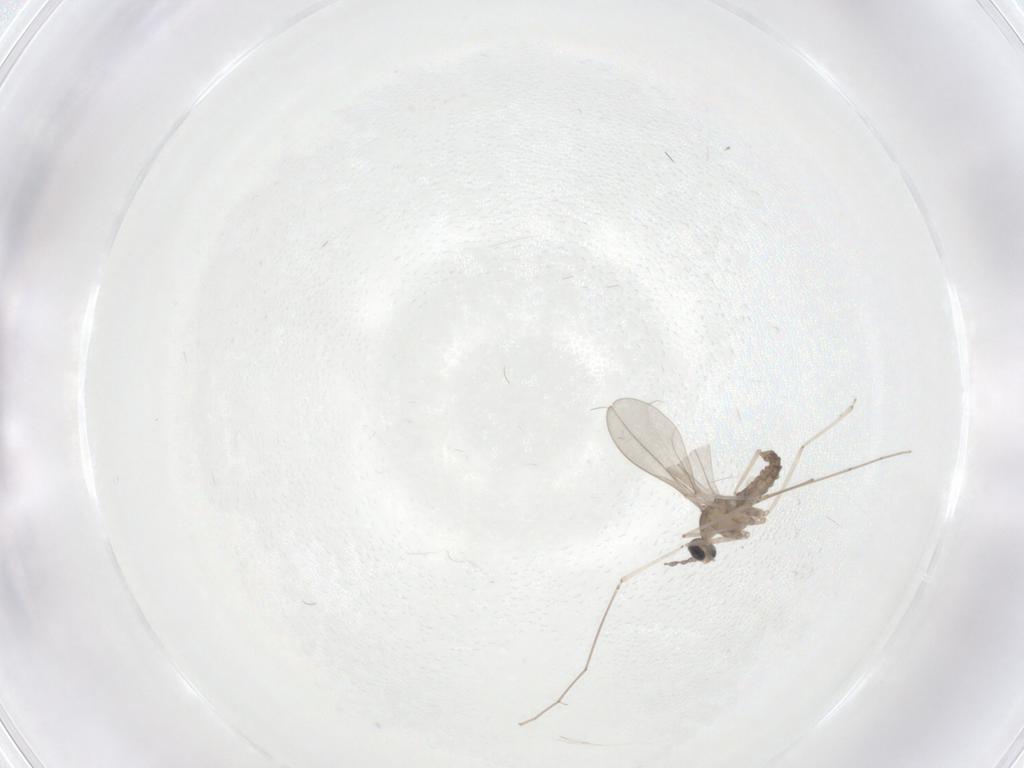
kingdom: Animalia
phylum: Arthropoda
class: Insecta
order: Diptera
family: Cecidomyiidae
